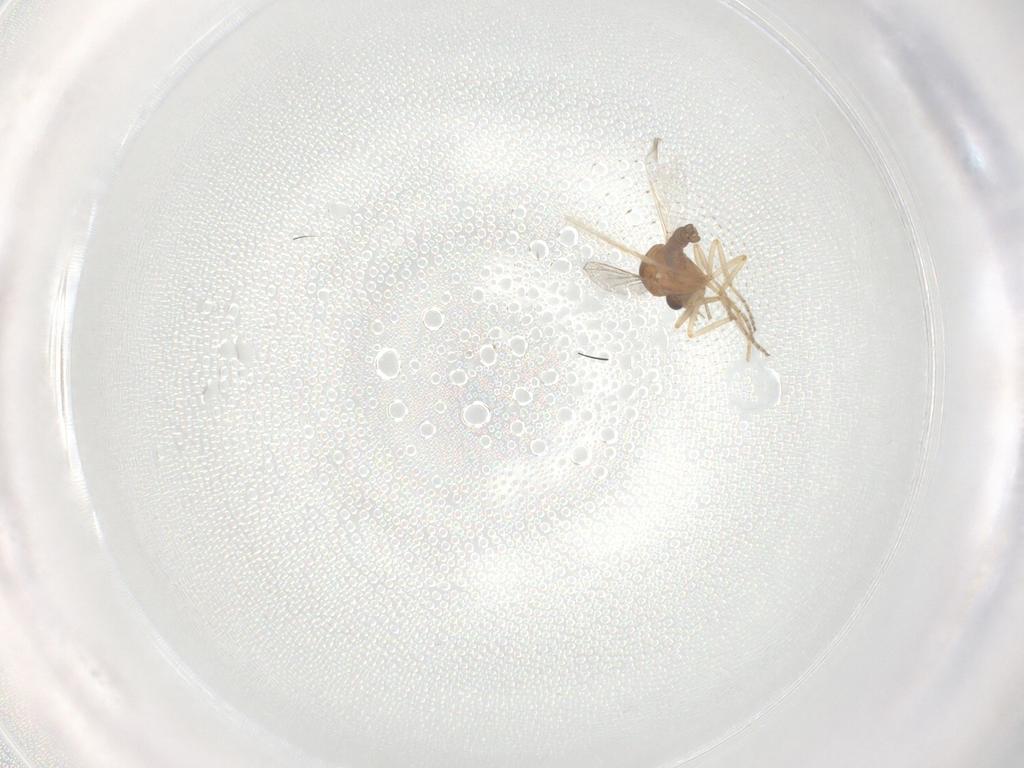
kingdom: Animalia
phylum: Arthropoda
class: Insecta
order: Diptera
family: Ceratopogonidae
